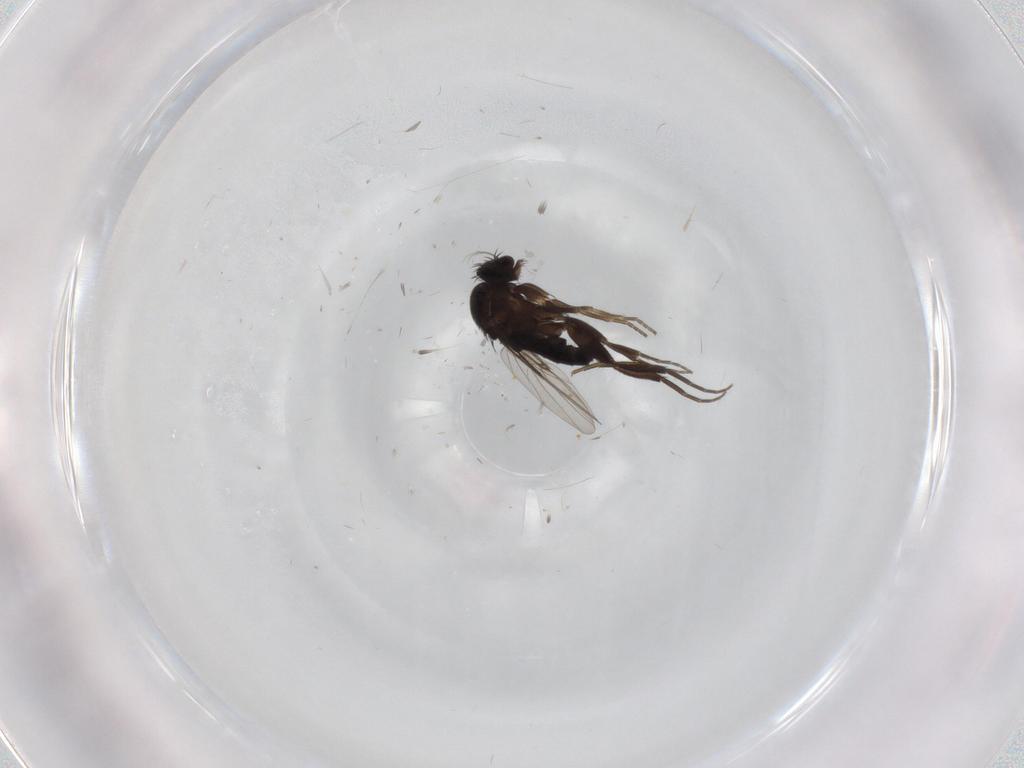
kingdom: Animalia
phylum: Arthropoda
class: Insecta
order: Diptera
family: Phoridae
